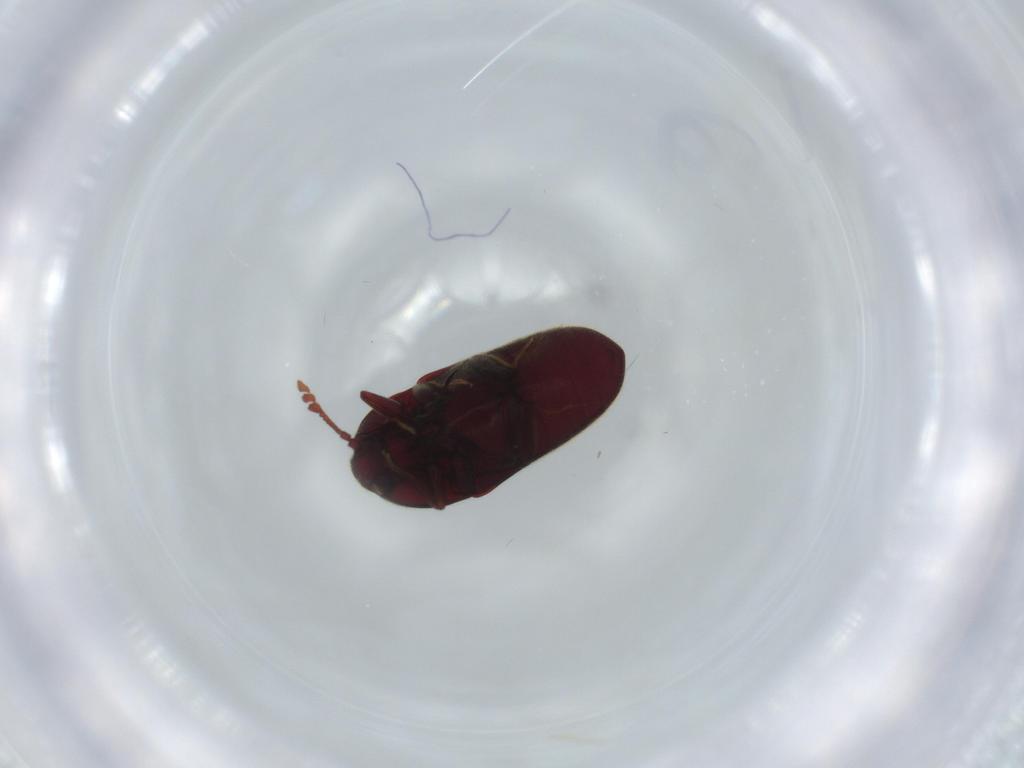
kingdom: Animalia
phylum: Arthropoda
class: Insecta
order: Coleoptera
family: Throscidae
